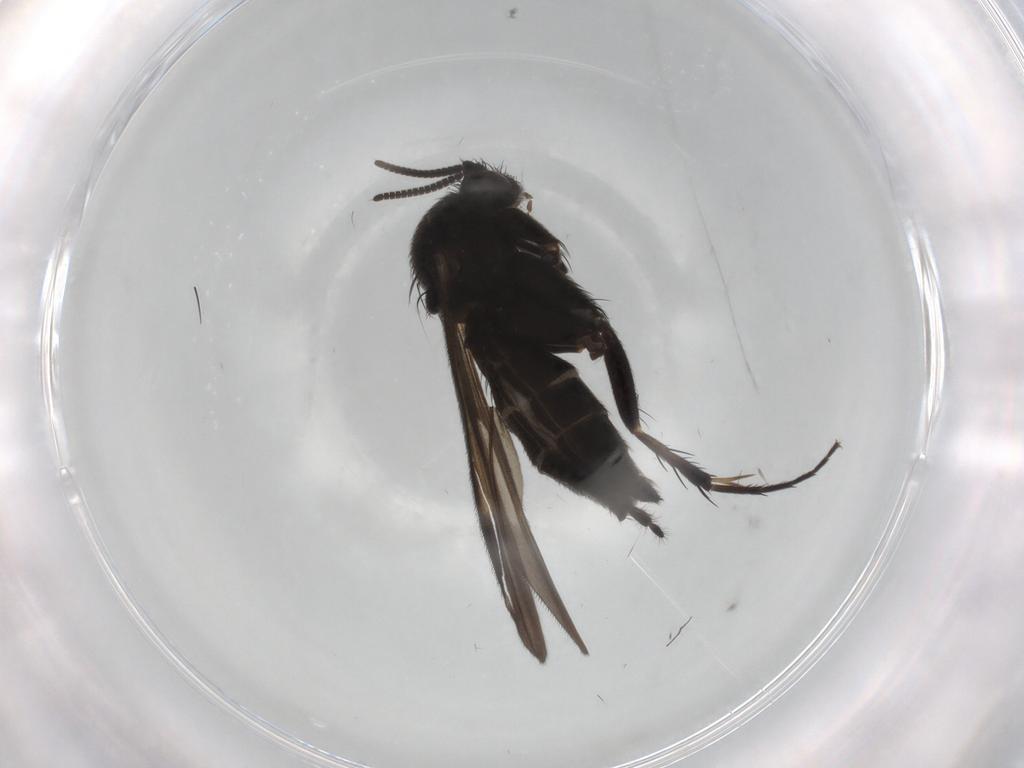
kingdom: Animalia
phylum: Arthropoda
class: Insecta
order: Diptera
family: Mycetophilidae
